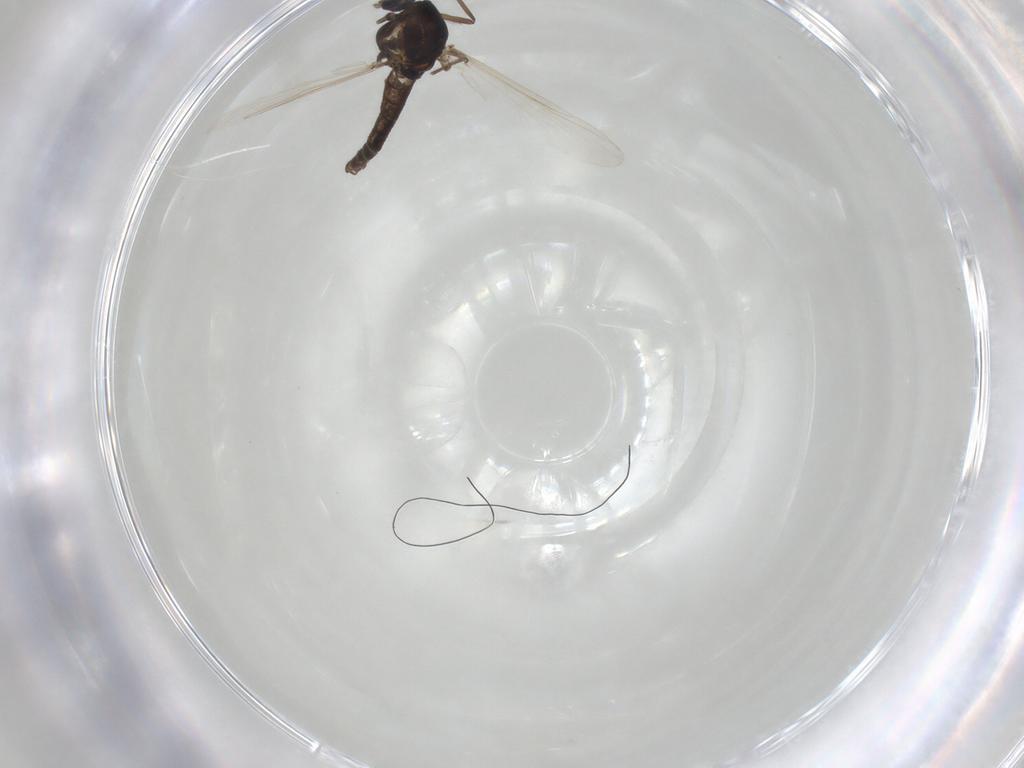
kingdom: Animalia
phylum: Arthropoda
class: Insecta
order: Diptera
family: Chironomidae
